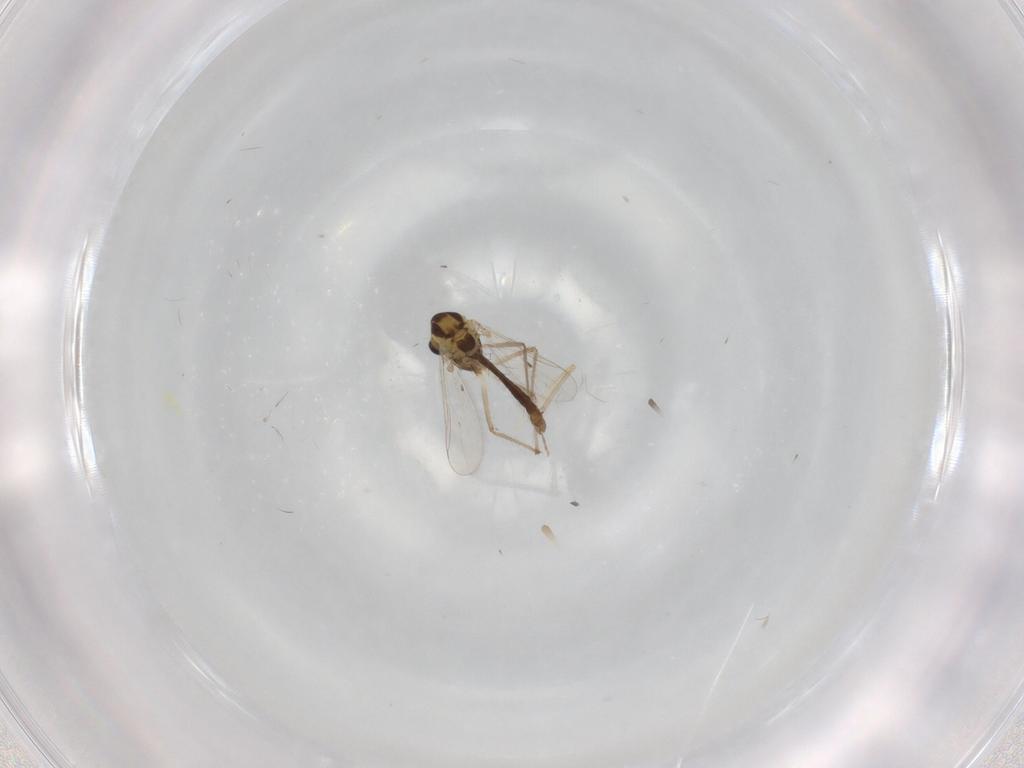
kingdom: Animalia
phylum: Arthropoda
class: Insecta
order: Diptera
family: Chironomidae
